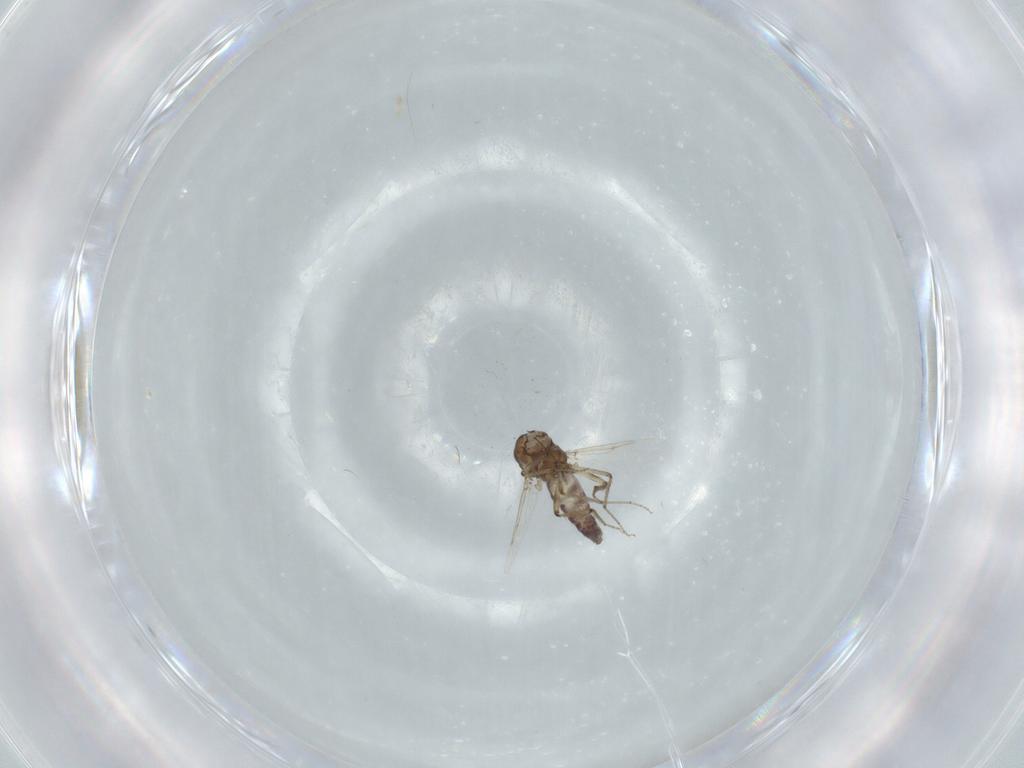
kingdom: Animalia
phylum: Arthropoda
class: Insecta
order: Diptera
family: Ceratopogonidae
